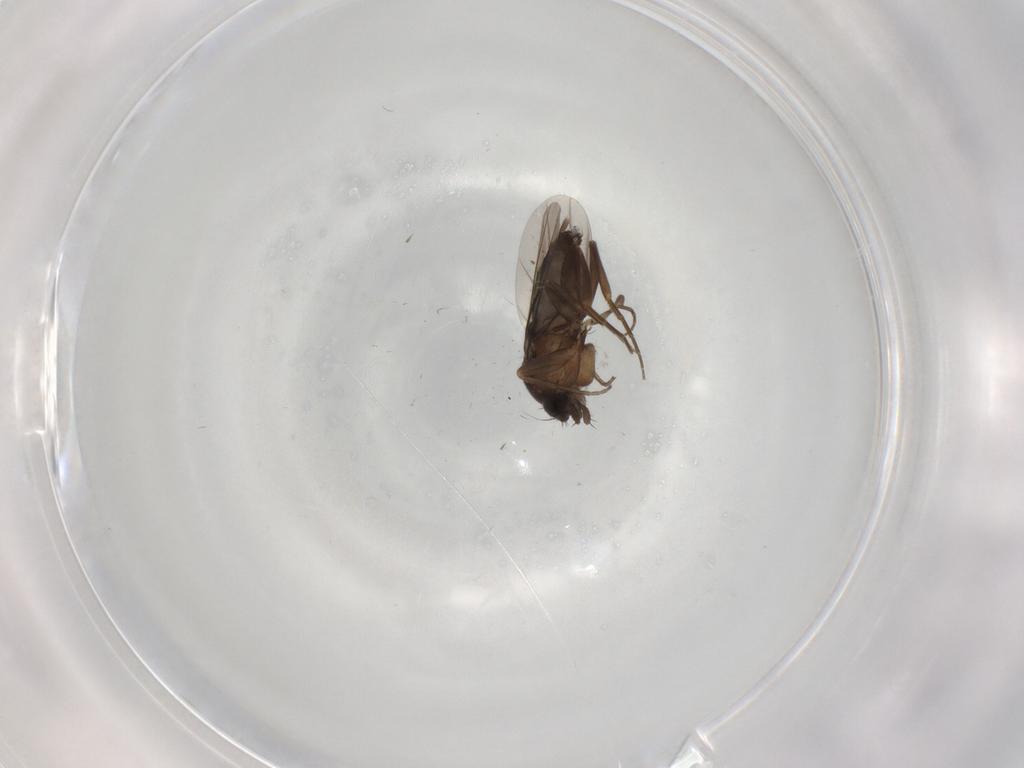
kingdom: Animalia
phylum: Arthropoda
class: Insecta
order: Diptera
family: Phoridae
